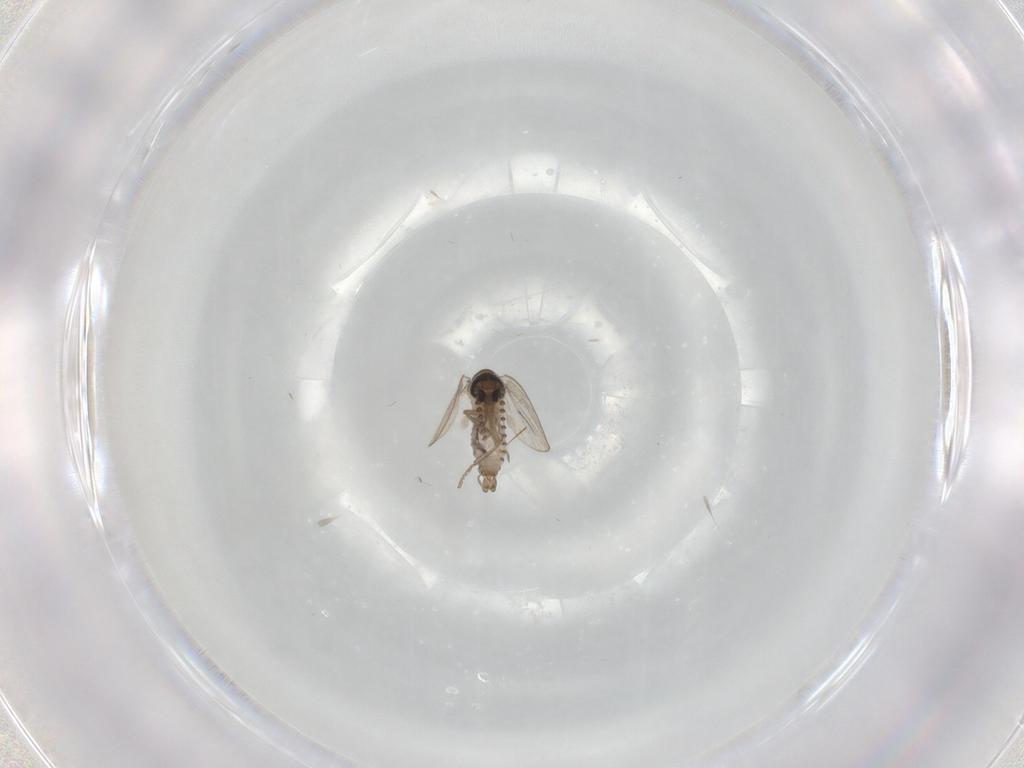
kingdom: Animalia
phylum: Arthropoda
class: Insecta
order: Diptera
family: Psychodidae
